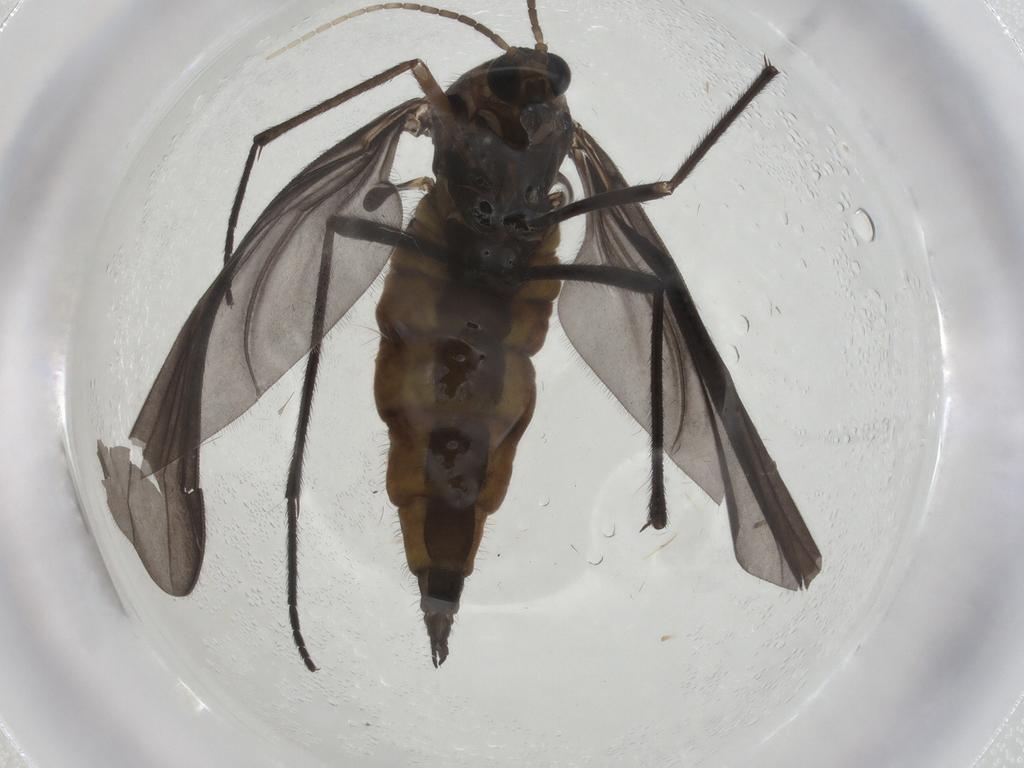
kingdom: Animalia
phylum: Arthropoda
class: Insecta
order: Diptera
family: Sciaridae
